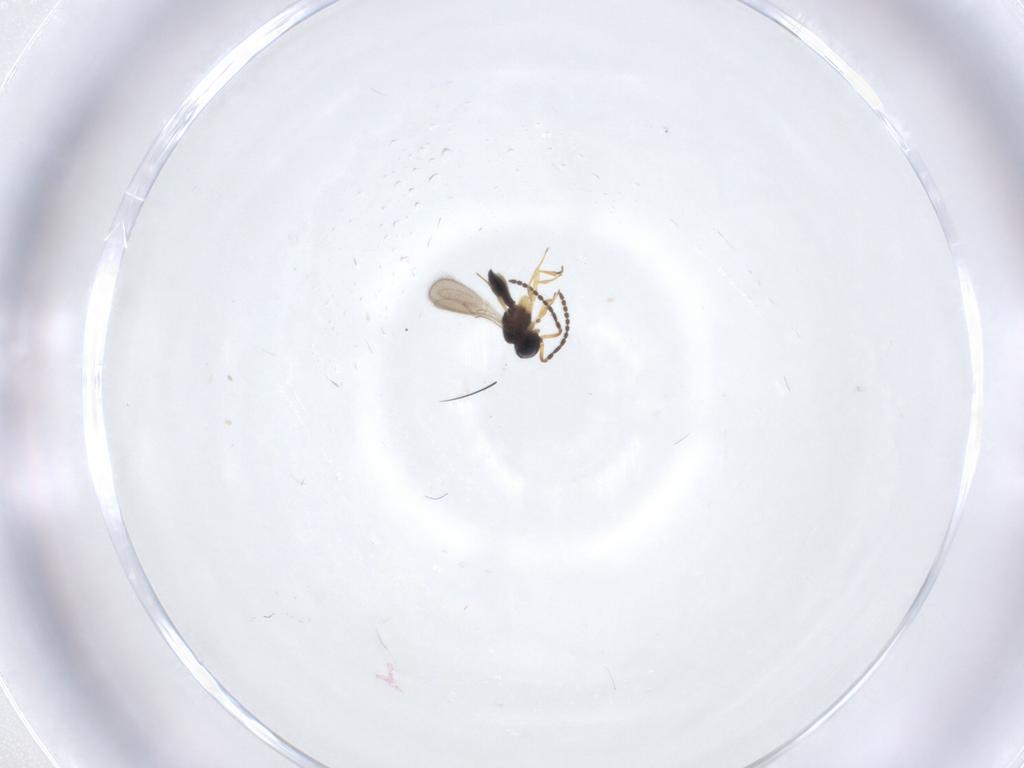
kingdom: Animalia
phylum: Arthropoda
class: Insecta
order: Hymenoptera
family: Scelionidae
